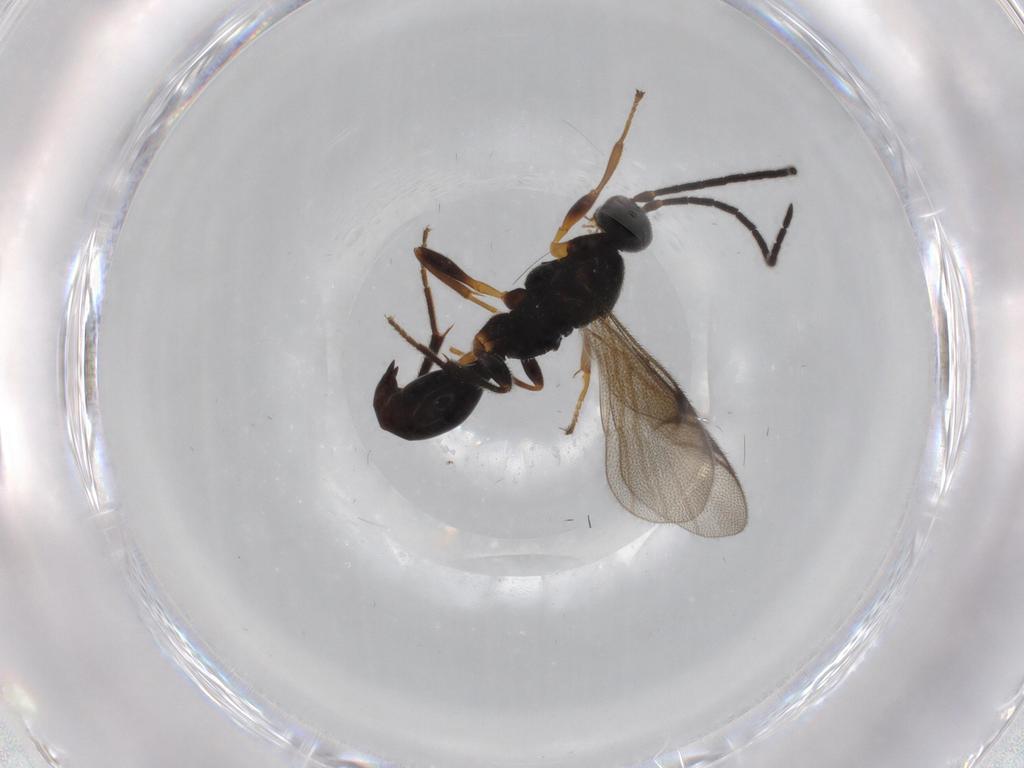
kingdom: Animalia
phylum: Arthropoda
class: Insecta
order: Hymenoptera
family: Proctotrupidae
